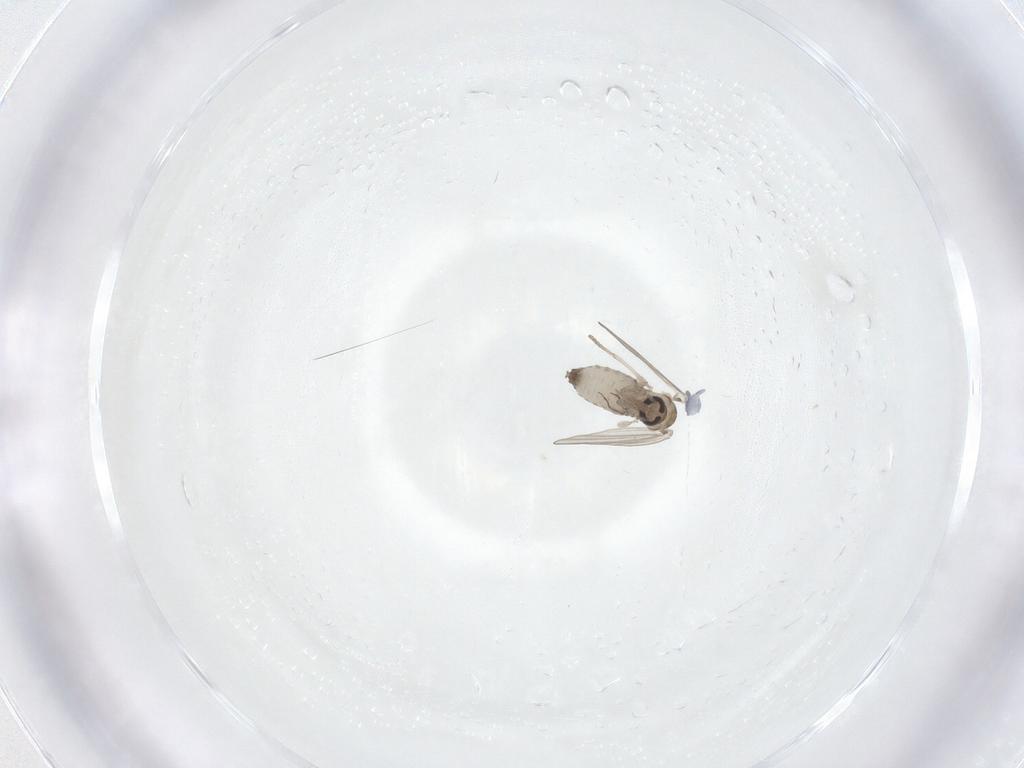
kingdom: Animalia
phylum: Arthropoda
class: Insecta
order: Diptera
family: Psychodidae
